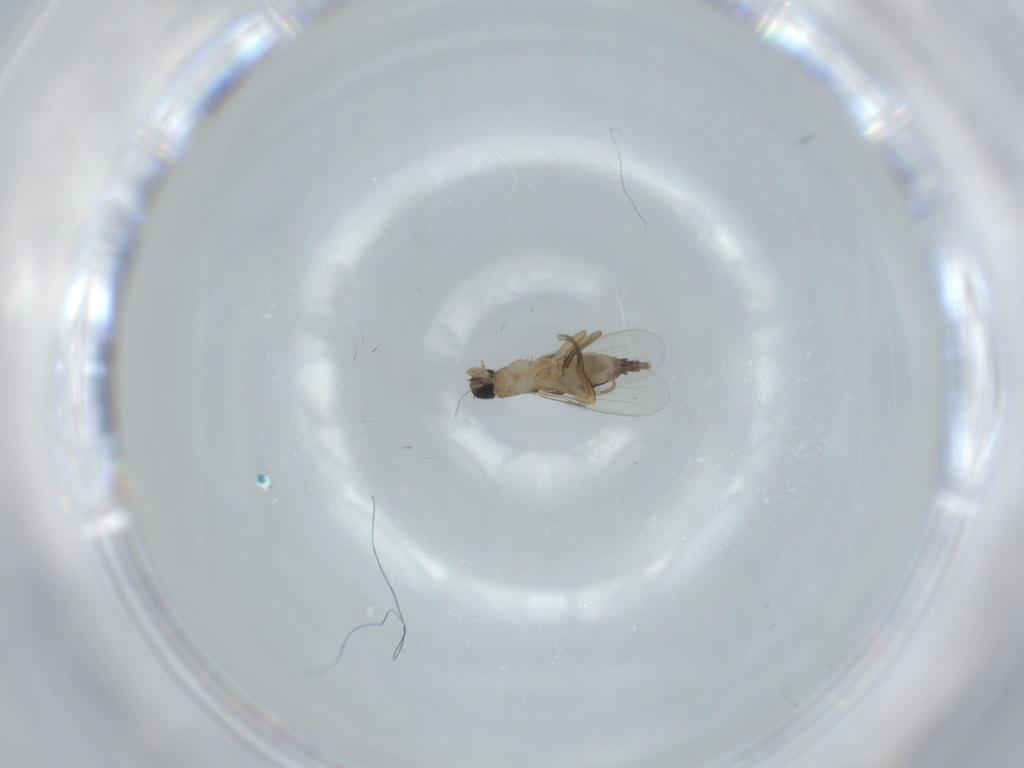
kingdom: Animalia
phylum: Arthropoda
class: Insecta
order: Diptera
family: Phoridae
